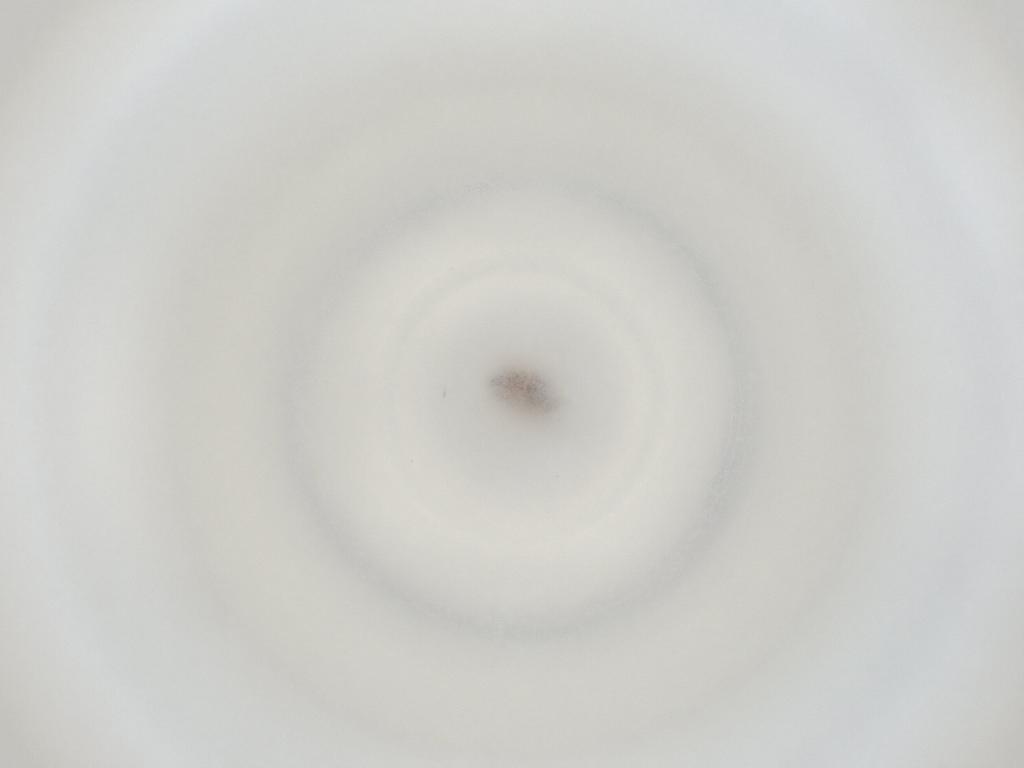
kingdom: Animalia
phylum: Arthropoda
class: Insecta
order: Diptera
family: Cecidomyiidae
